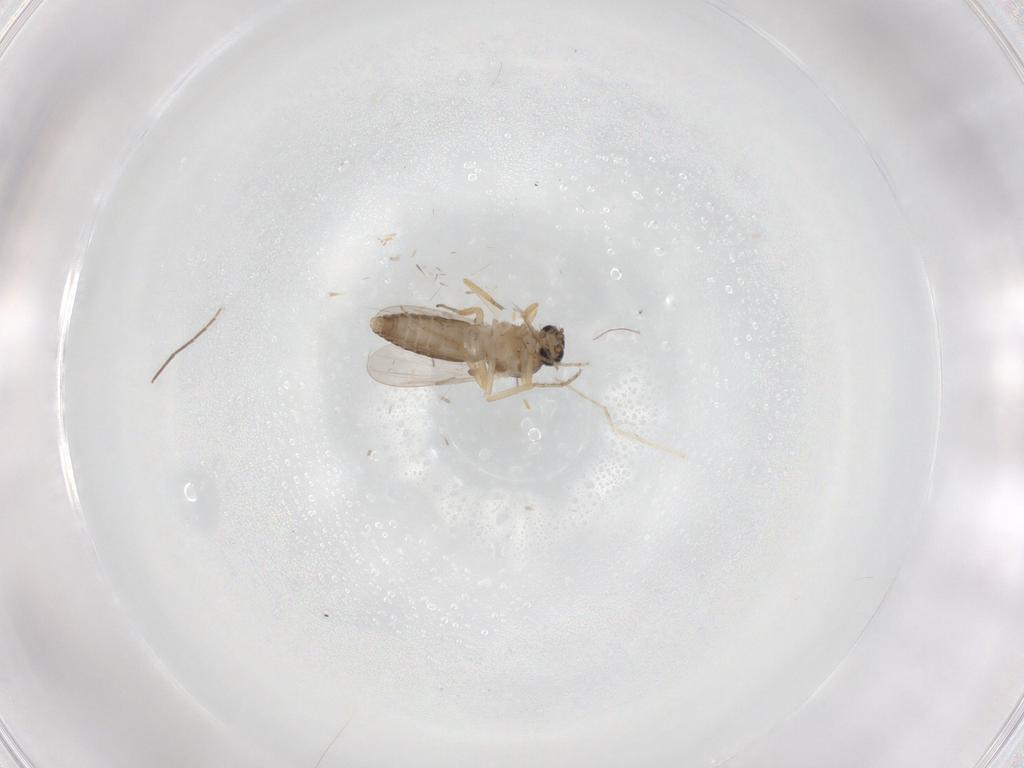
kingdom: Animalia
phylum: Arthropoda
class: Insecta
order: Diptera
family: Ceratopogonidae
